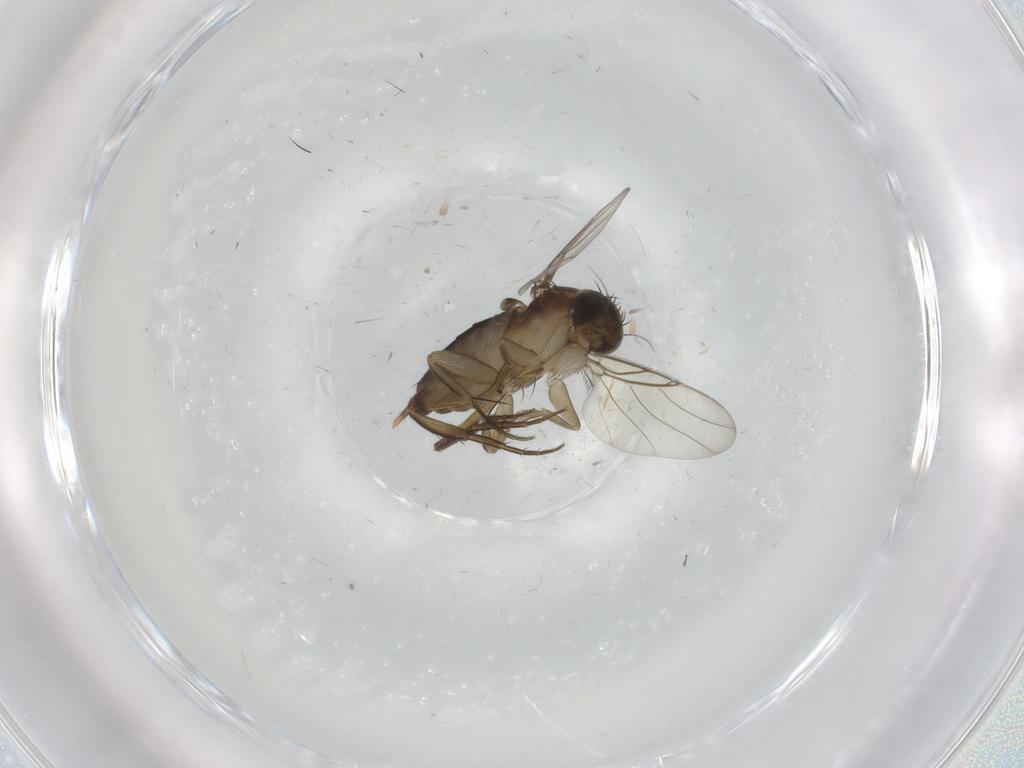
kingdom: Animalia
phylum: Arthropoda
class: Insecta
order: Diptera
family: Phoridae
